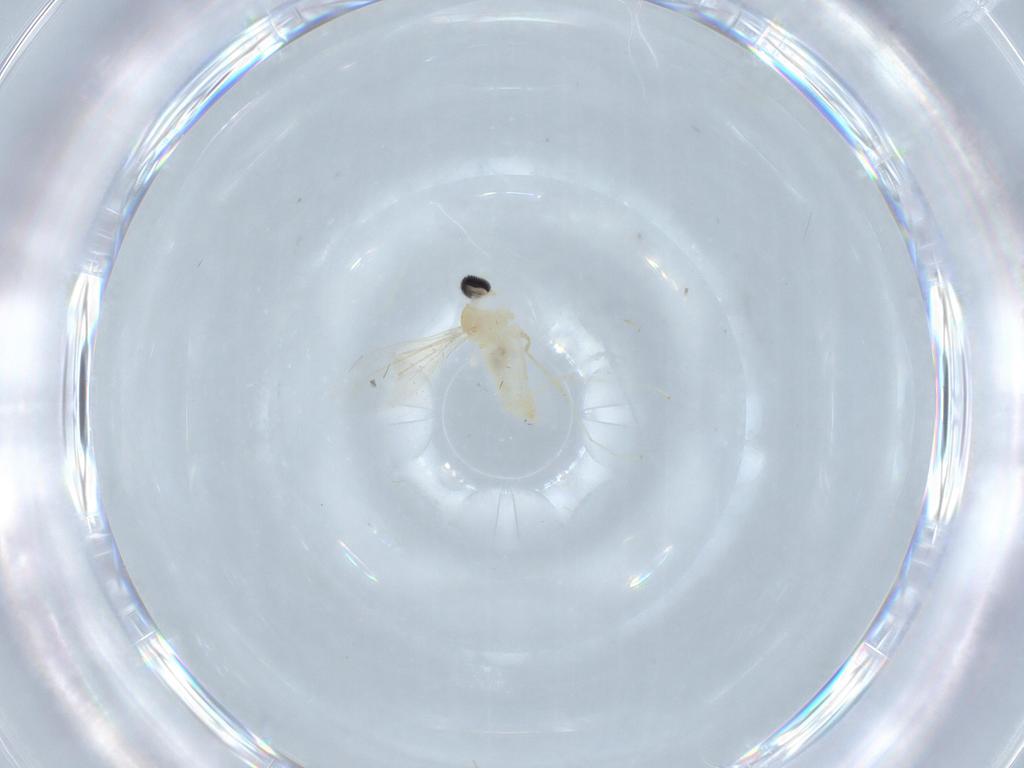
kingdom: Animalia
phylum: Arthropoda
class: Insecta
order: Diptera
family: Cecidomyiidae
